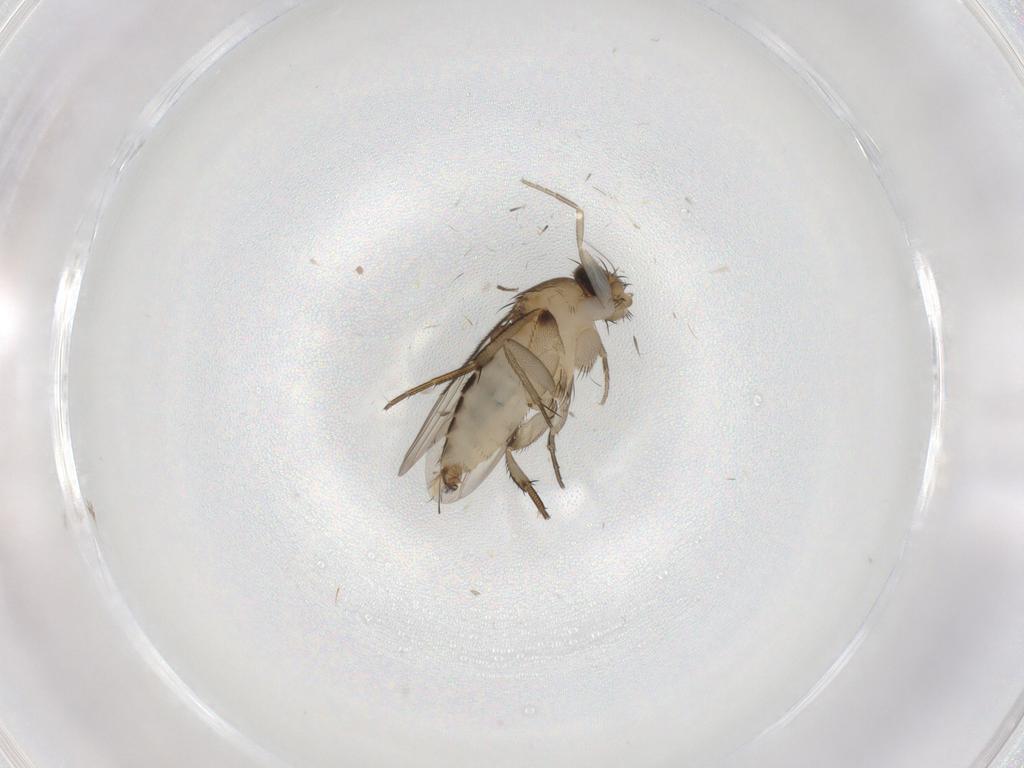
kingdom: Animalia
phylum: Arthropoda
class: Insecta
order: Diptera
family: Phoridae
